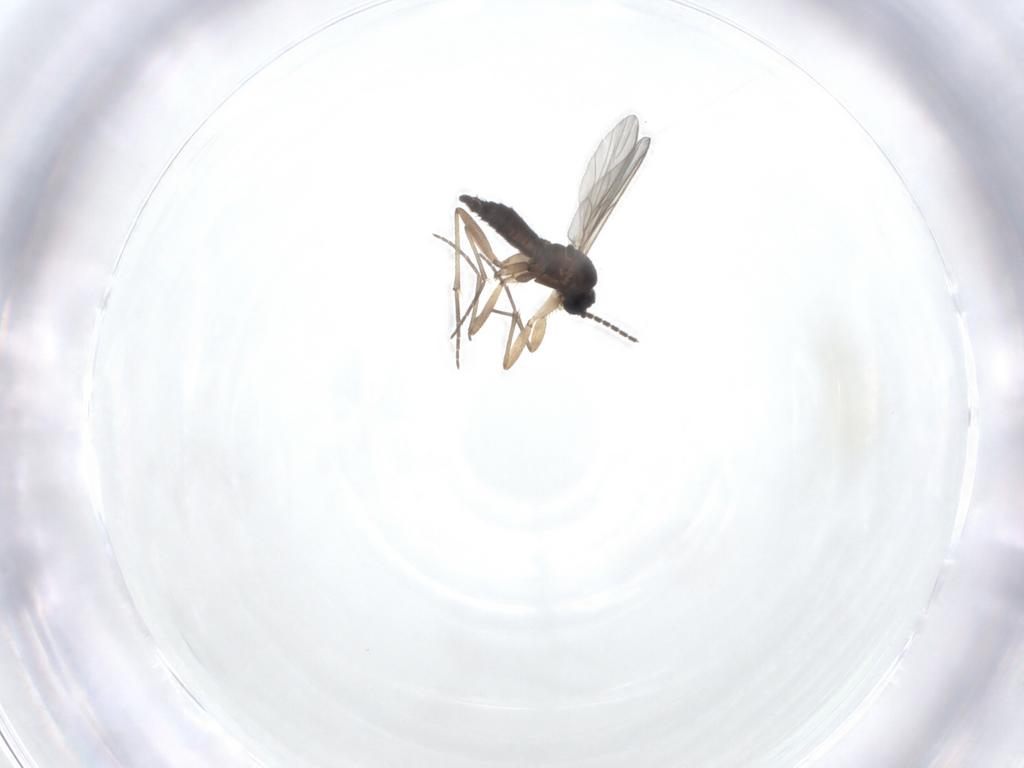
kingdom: Animalia
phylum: Arthropoda
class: Insecta
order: Diptera
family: Sciaridae
